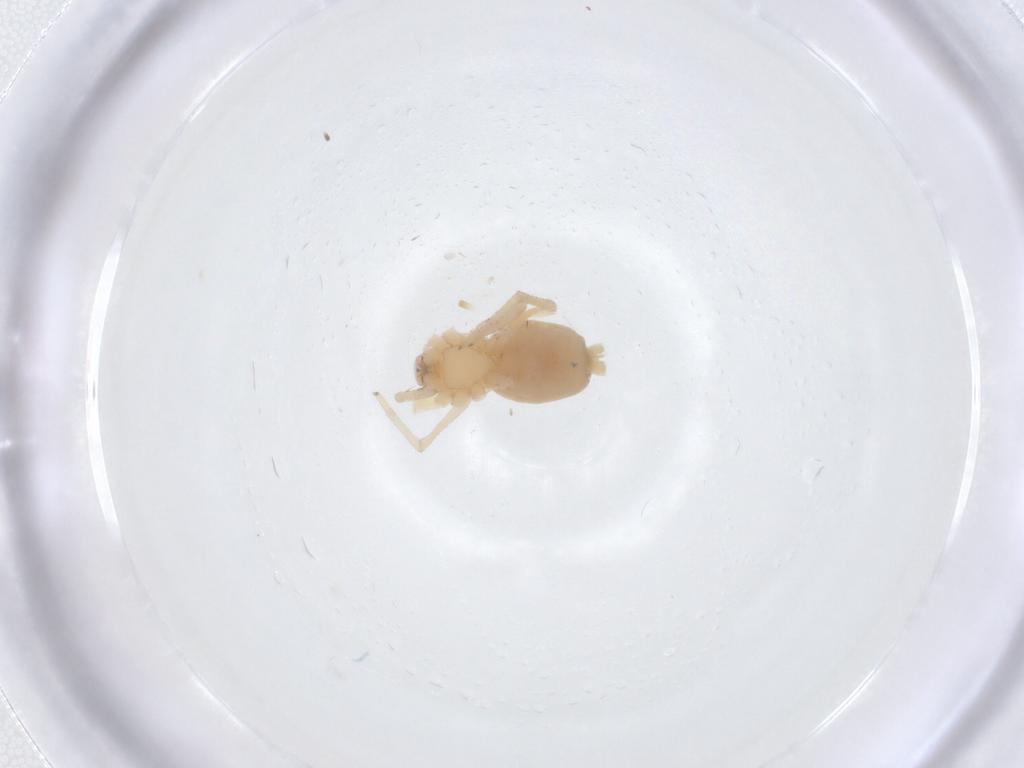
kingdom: Animalia
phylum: Arthropoda
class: Arachnida
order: Araneae
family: Corinnidae
